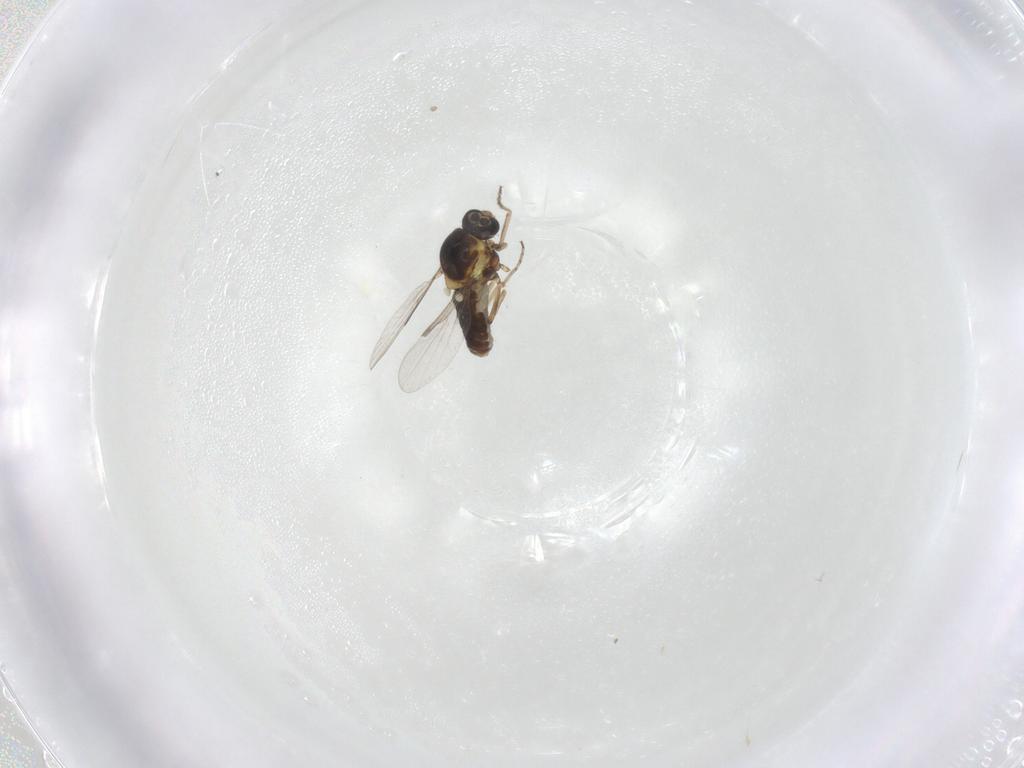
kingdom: Animalia
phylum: Arthropoda
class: Insecta
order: Diptera
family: Ceratopogonidae
